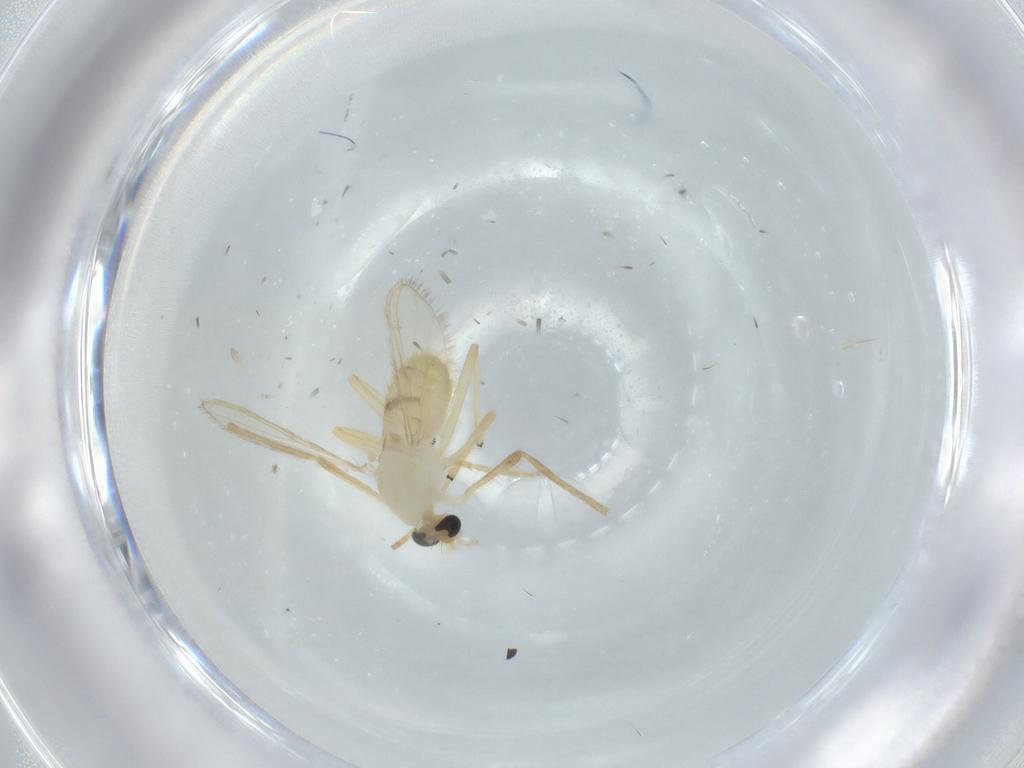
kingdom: Animalia
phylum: Arthropoda
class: Insecta
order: Diptera
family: Chironomidae
